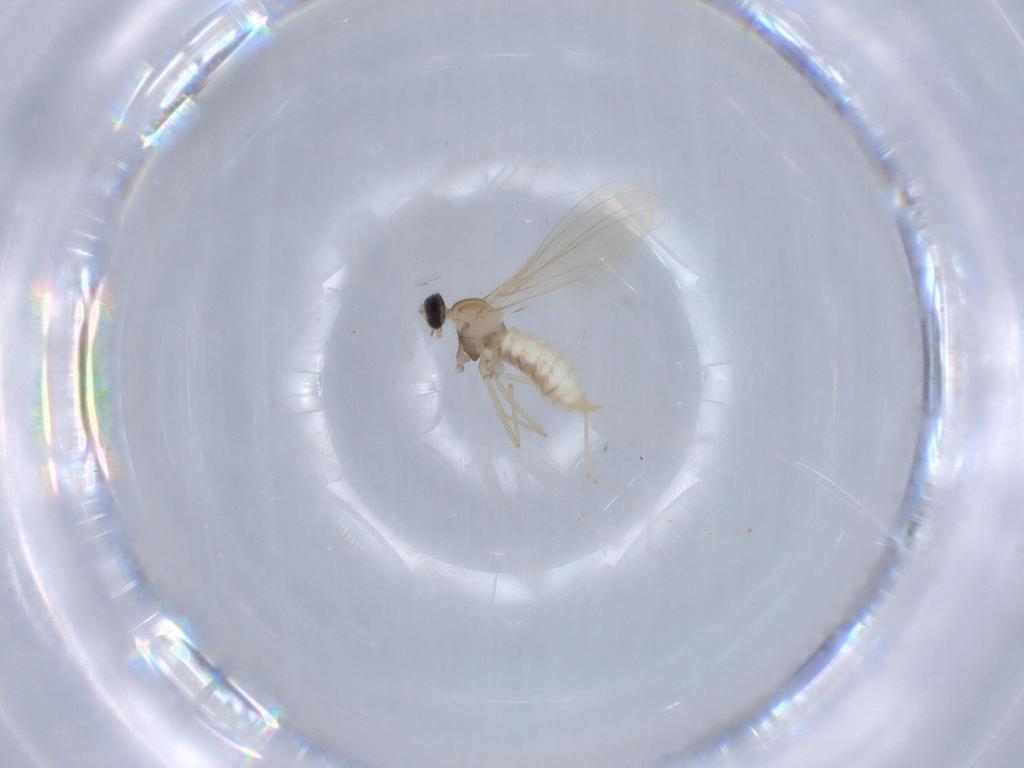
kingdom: Animalia
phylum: Arthropoda
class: Insecta
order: Diptera
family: Cecidomyiidae
